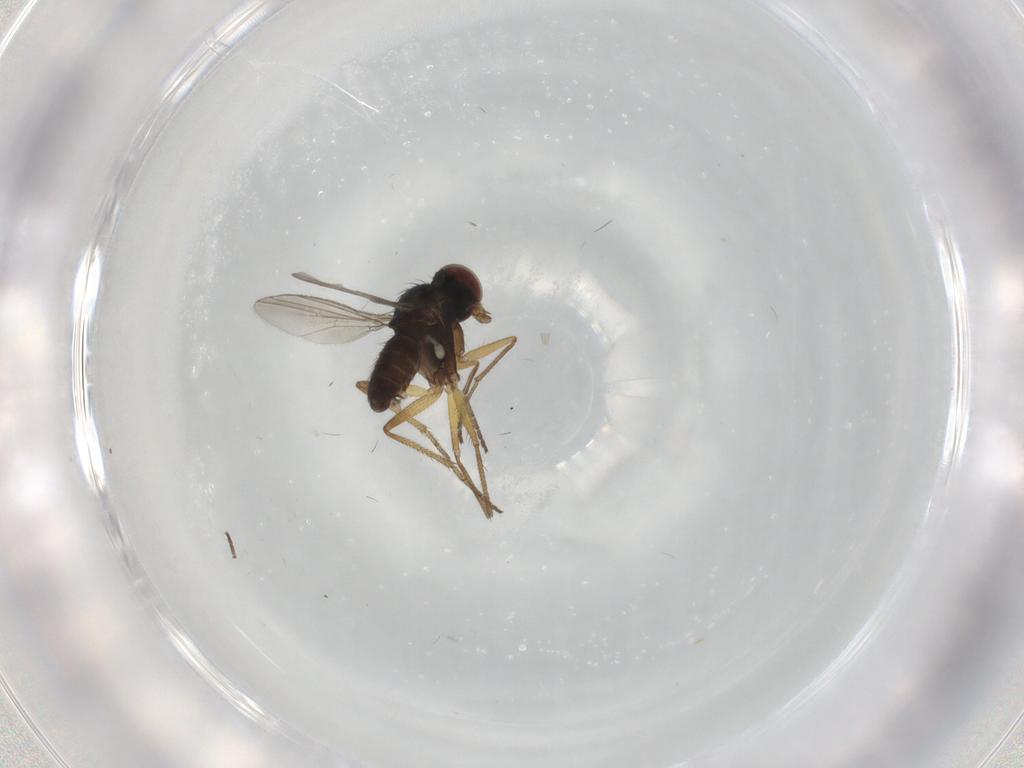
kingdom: Animalia
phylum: Arthropoda
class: Insecta
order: Diptera
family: Dolichopodidae
